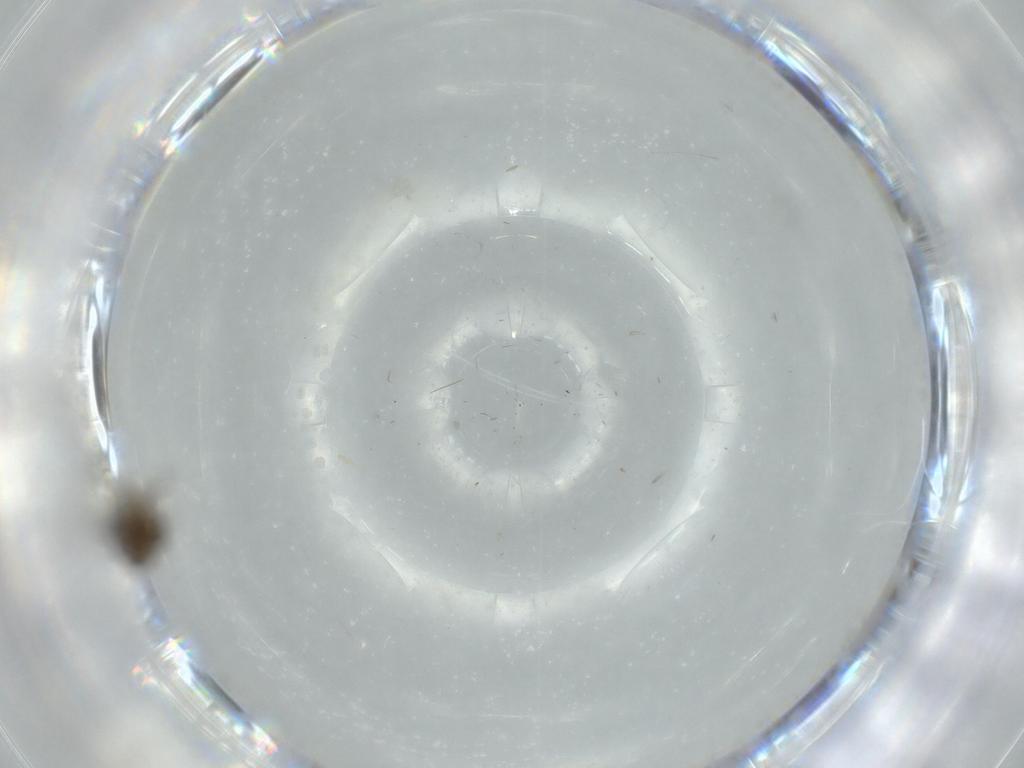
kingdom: Animalia
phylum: Arthropoda
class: Insecta
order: Diptera
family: Phoridae
